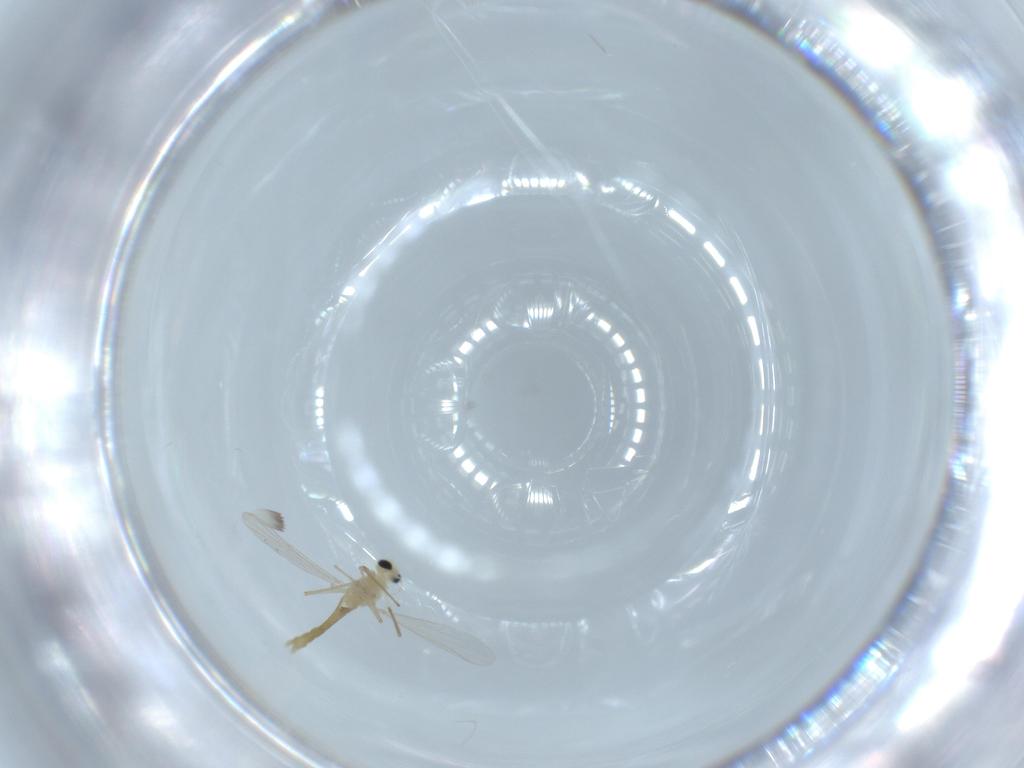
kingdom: Animalia
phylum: Arthropoda
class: Insecta
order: Diptera
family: Chironomidae
